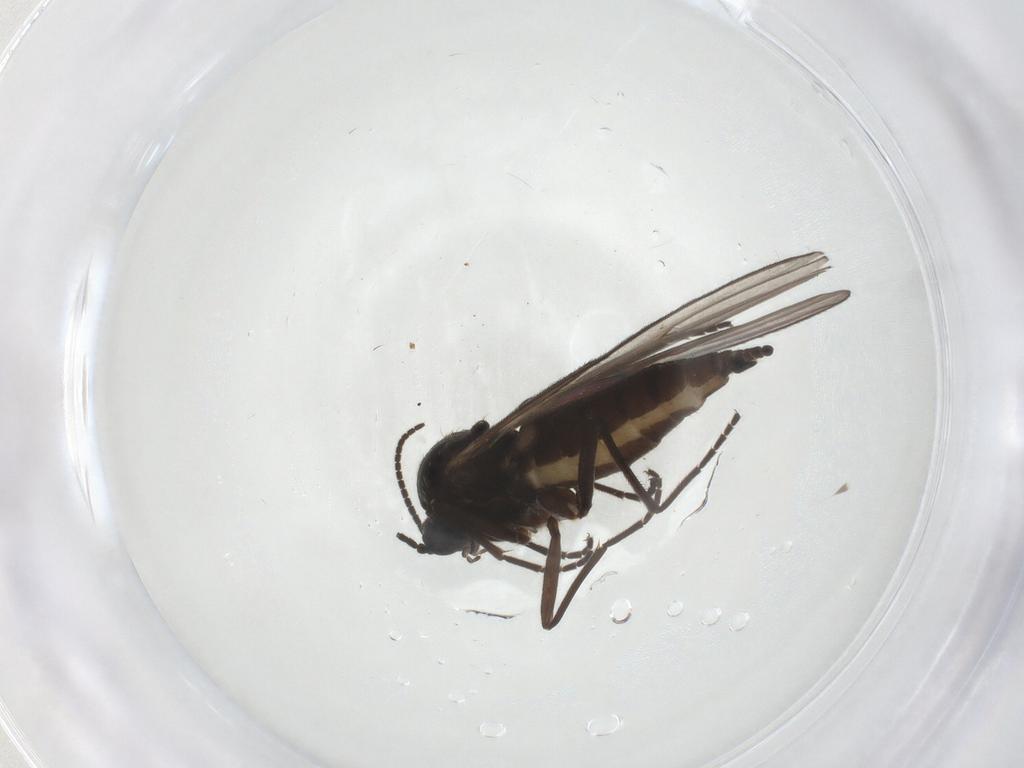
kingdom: Animalia
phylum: Arthropoda
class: Insecta
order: Diptera
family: Sciaridae
